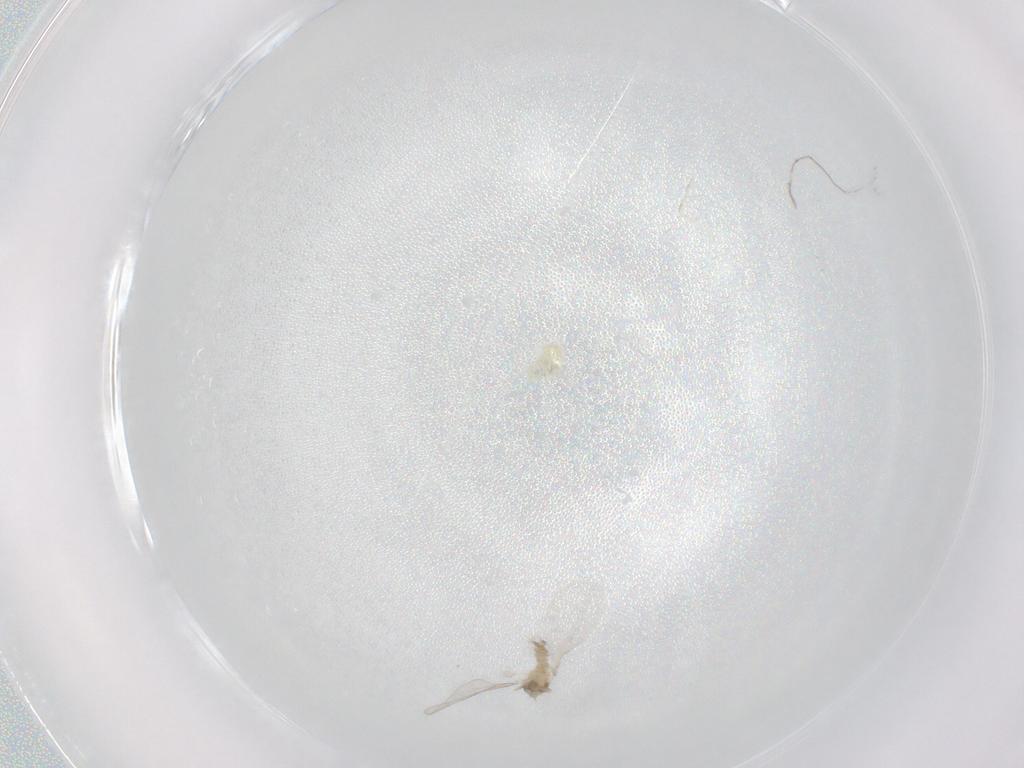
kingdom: Animalia
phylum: Arthropoda
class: Insecta
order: Diptera
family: Cecidomyiidae
